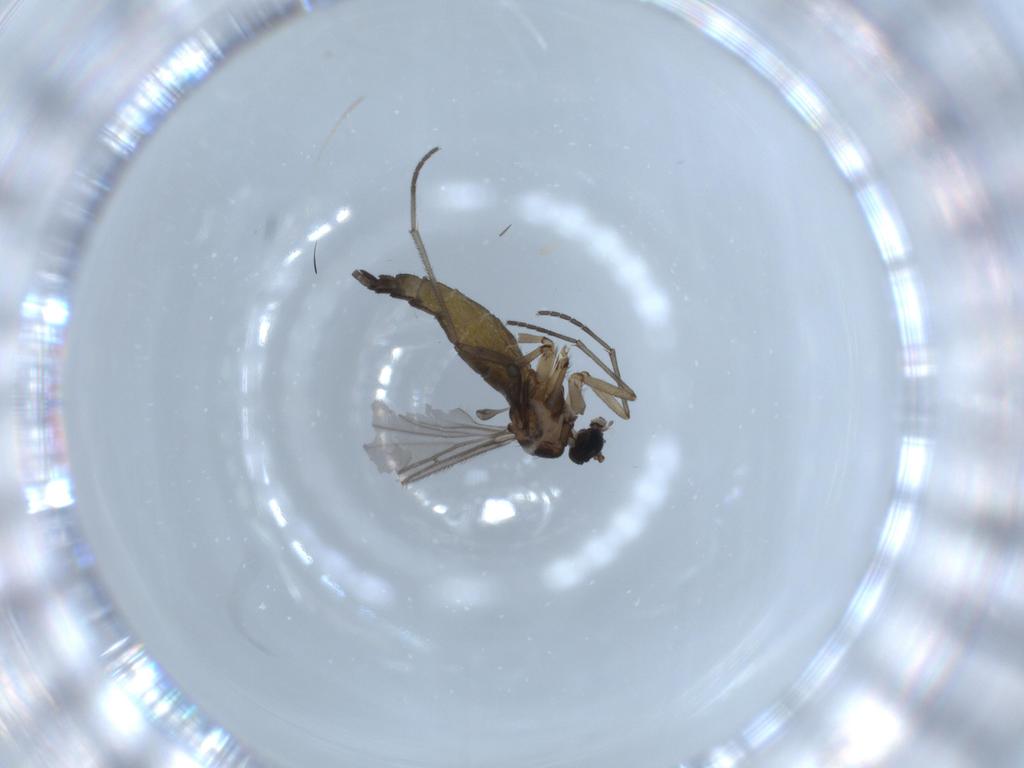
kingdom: Animalia
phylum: Arthropoda
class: Insecta
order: Diptera
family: Sciaridae
